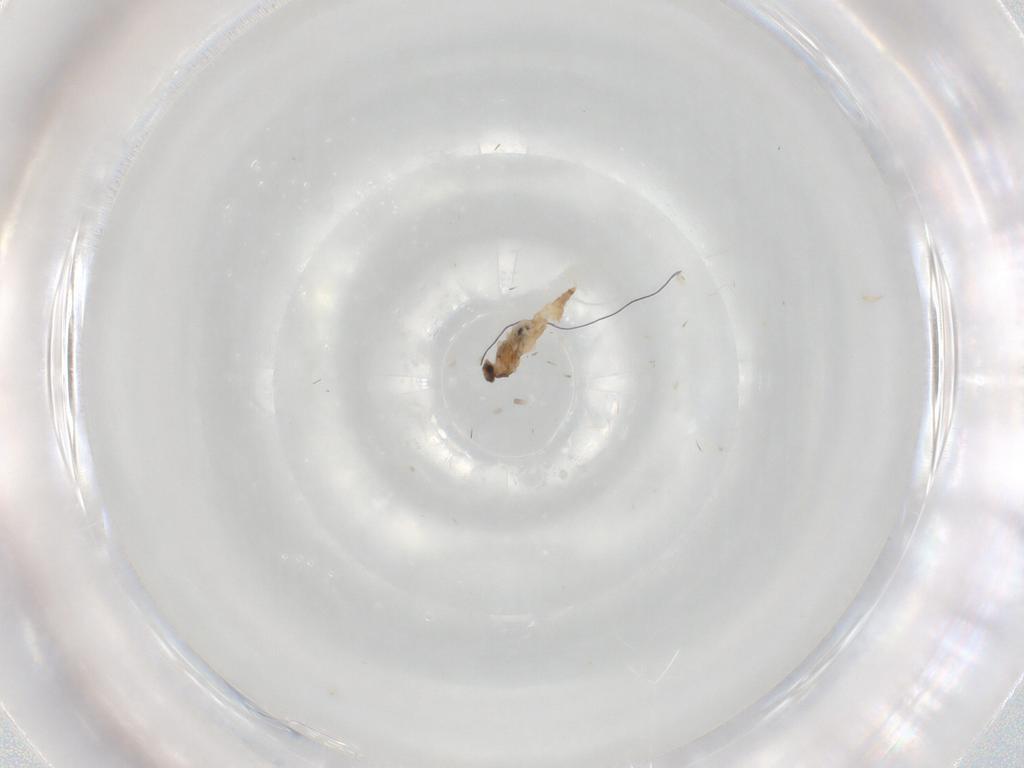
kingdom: Animalia
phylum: Arthropoda
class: Insecta
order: Diptera
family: Cecidomyiidae
